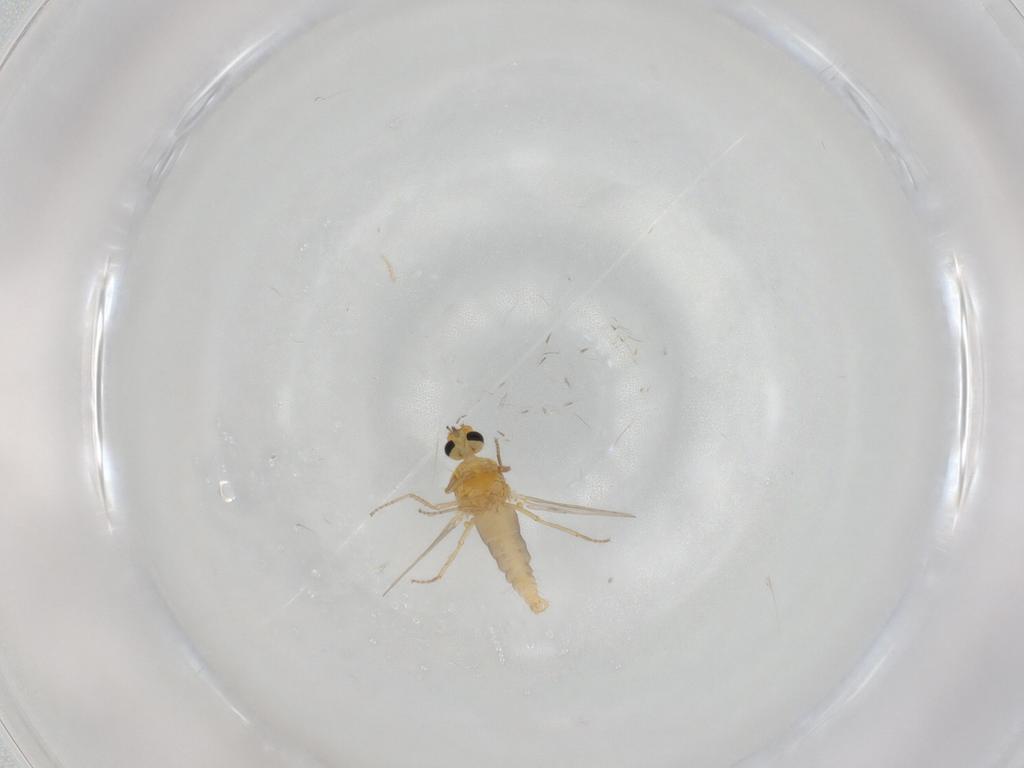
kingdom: Animalia
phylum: Arthropoda
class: Insecta
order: Diptera
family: Ceratopogonidae
